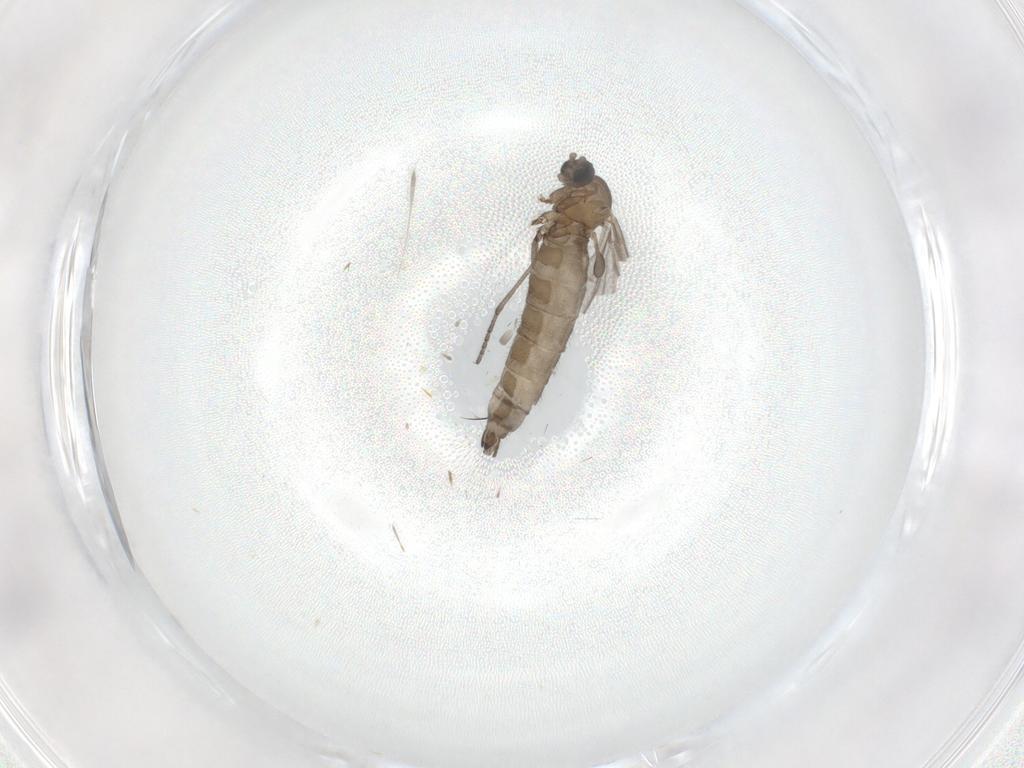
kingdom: Animalia
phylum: Arthropoda
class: Insecta
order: Diptera
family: Sciaridae
